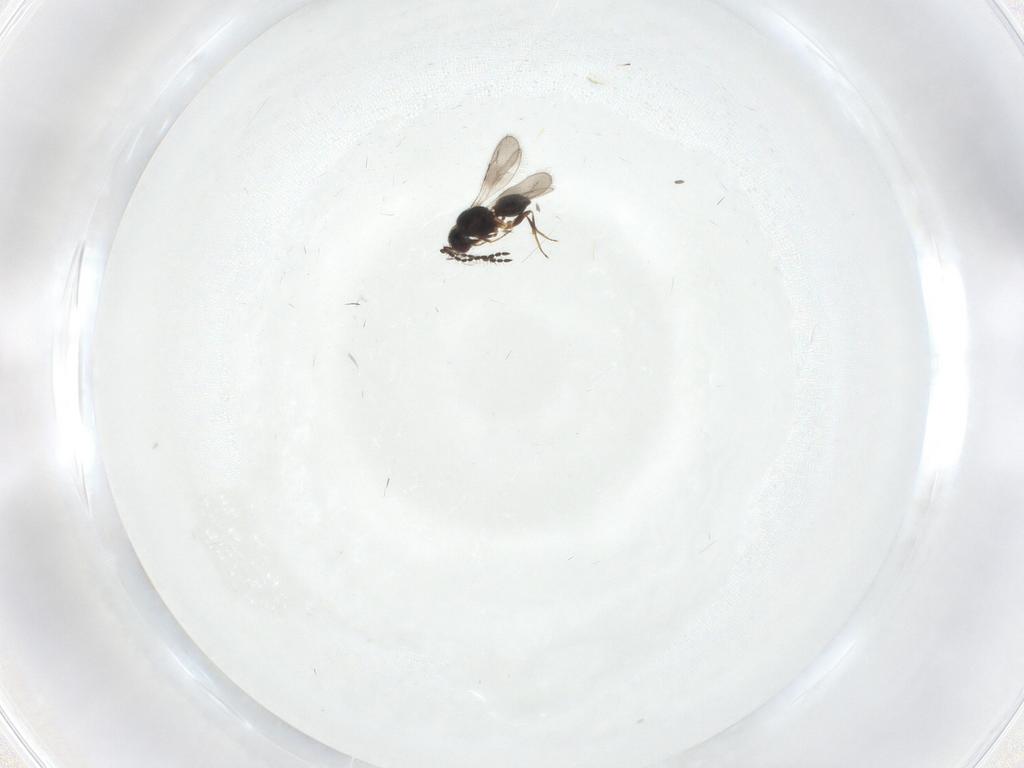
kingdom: Animalia
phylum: Arthropoda
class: Insecta
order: Hymenoptera
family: Ceraphronidae
